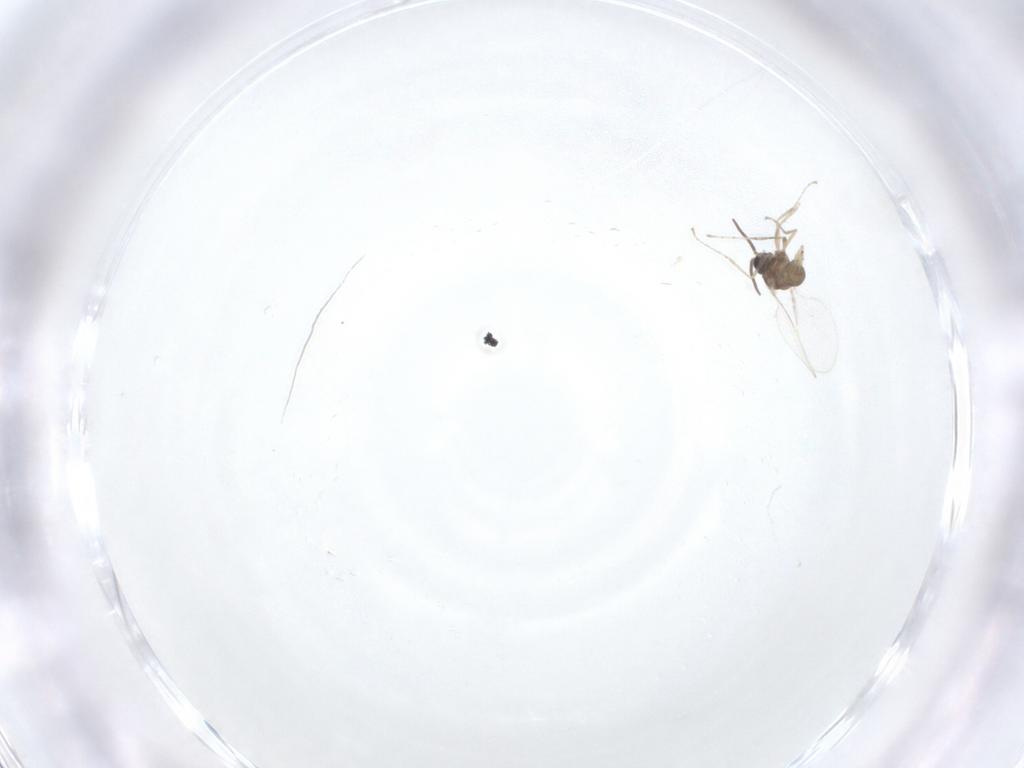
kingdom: Animalia
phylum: Arthropoda
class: Insecta
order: Diptera
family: Cecidomyiidae
